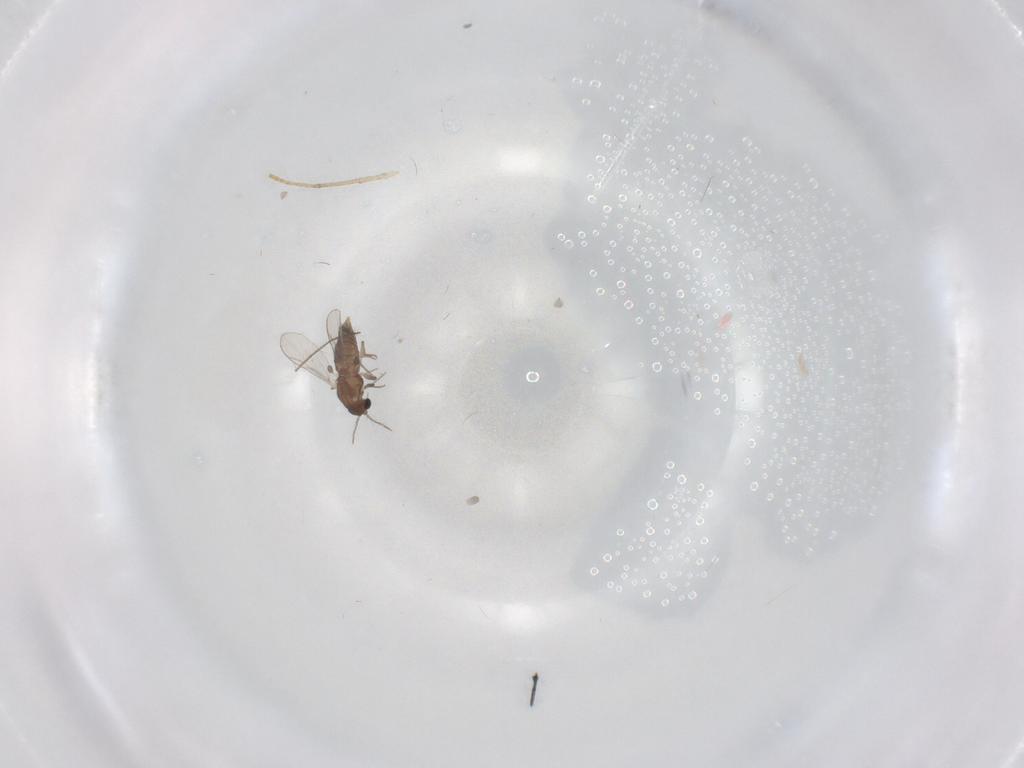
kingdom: Animalia
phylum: Arthropoda
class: Insecta
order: Diptera
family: Chironomidae
